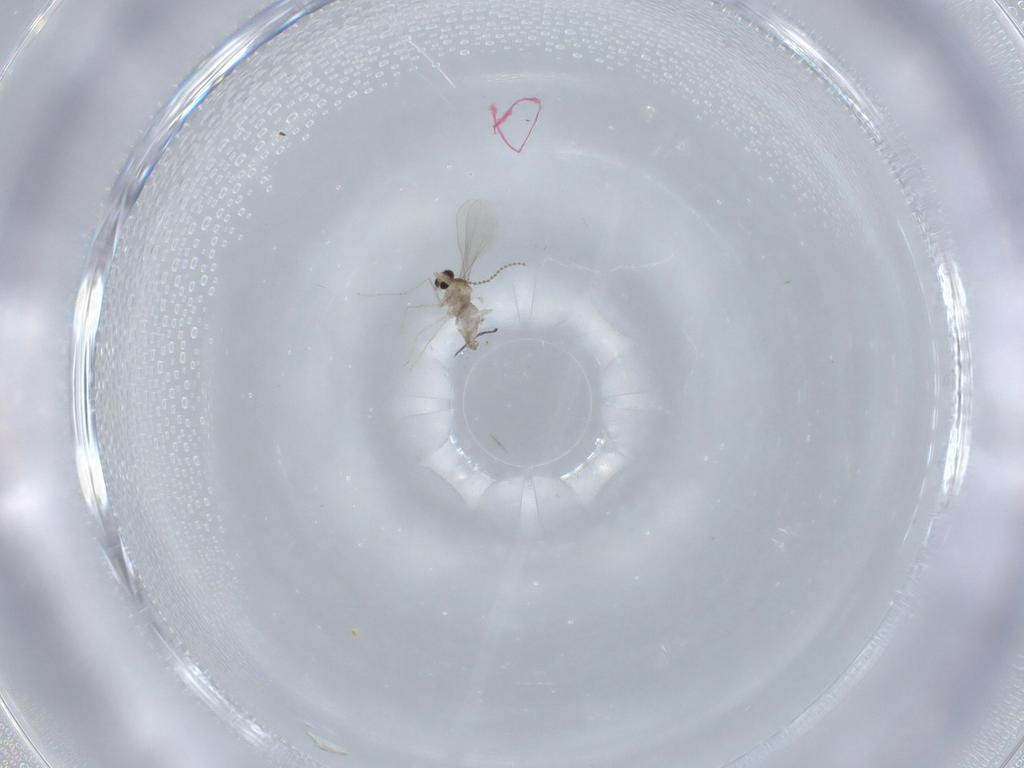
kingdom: Animalia
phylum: Arthropoda
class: Insecta
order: Diptera
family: Cecidomyiidae
